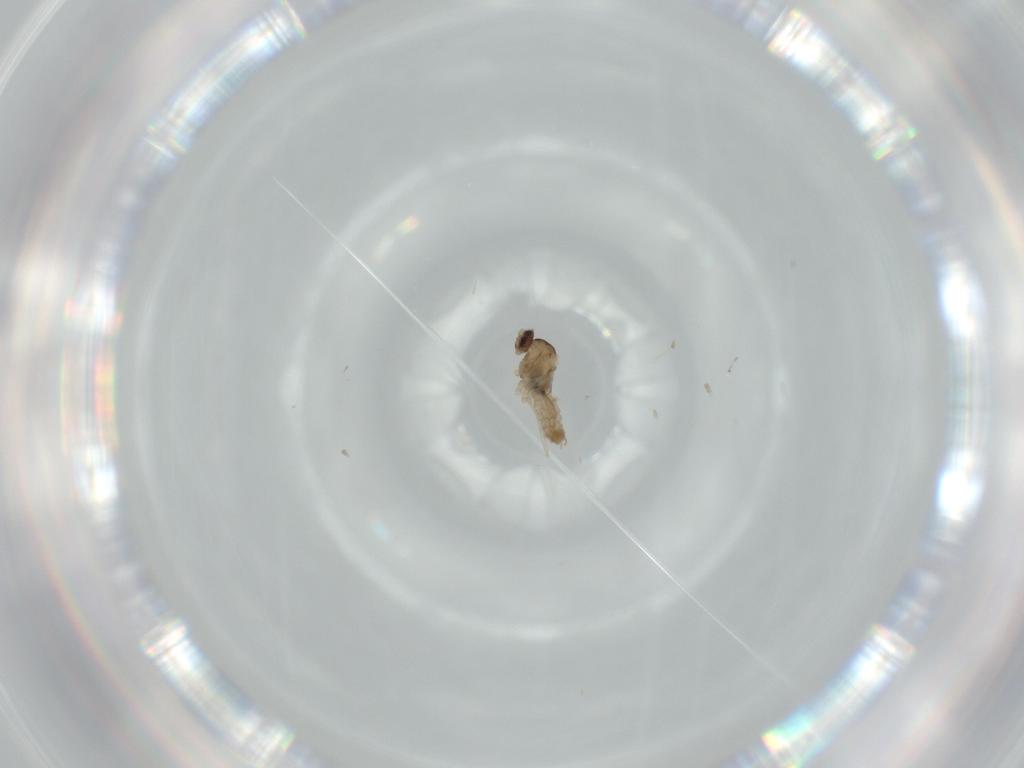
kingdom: Animalia
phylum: Arthropoda
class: Insecta
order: Diptera
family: Cecidomyiidae
